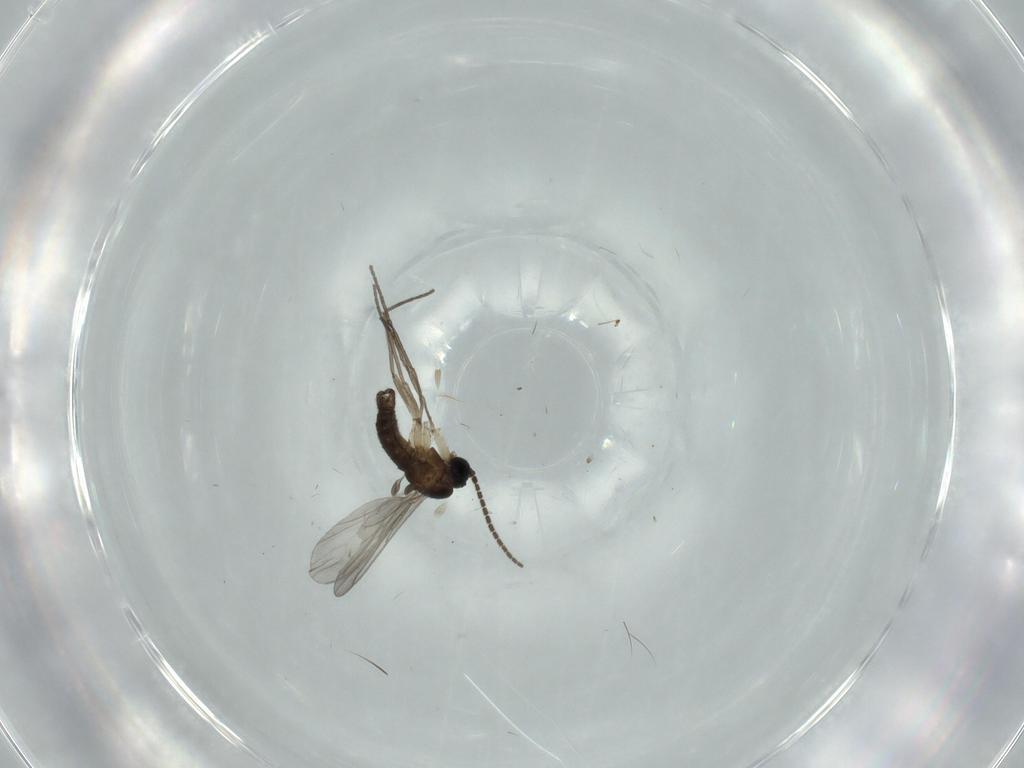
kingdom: Animalia
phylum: Arthropoda
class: Insecta
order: Diptera
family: Sciaridae
